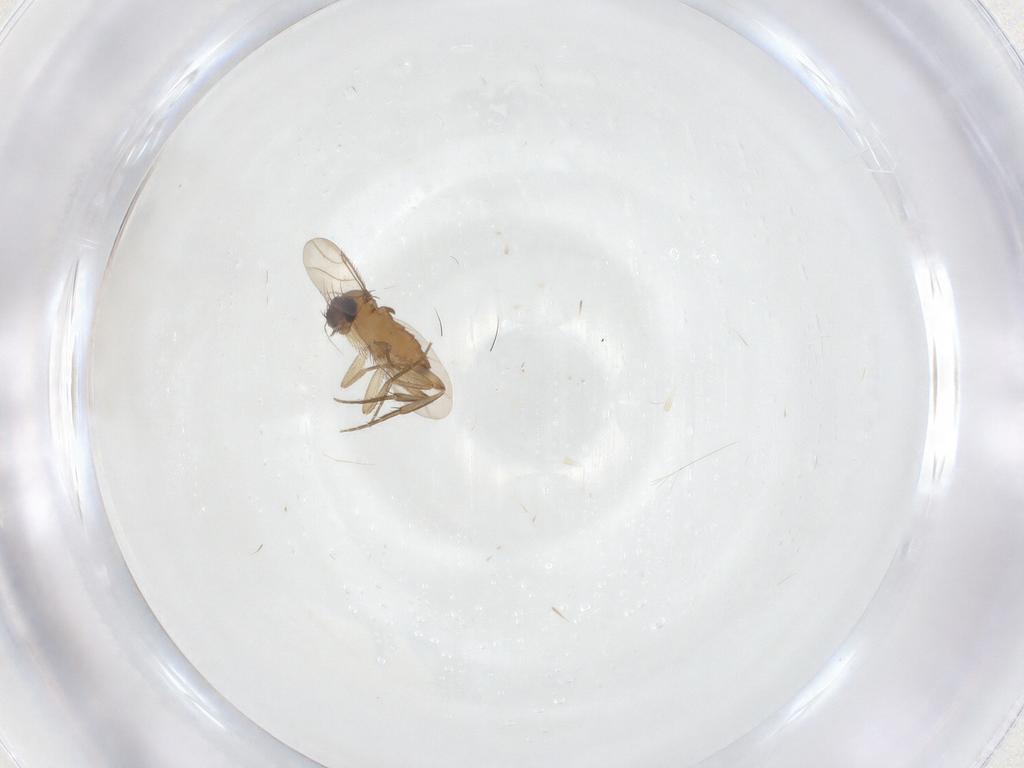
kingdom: Animalia
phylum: Arthropoda
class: Insecta
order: Diptera
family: Phoridae
